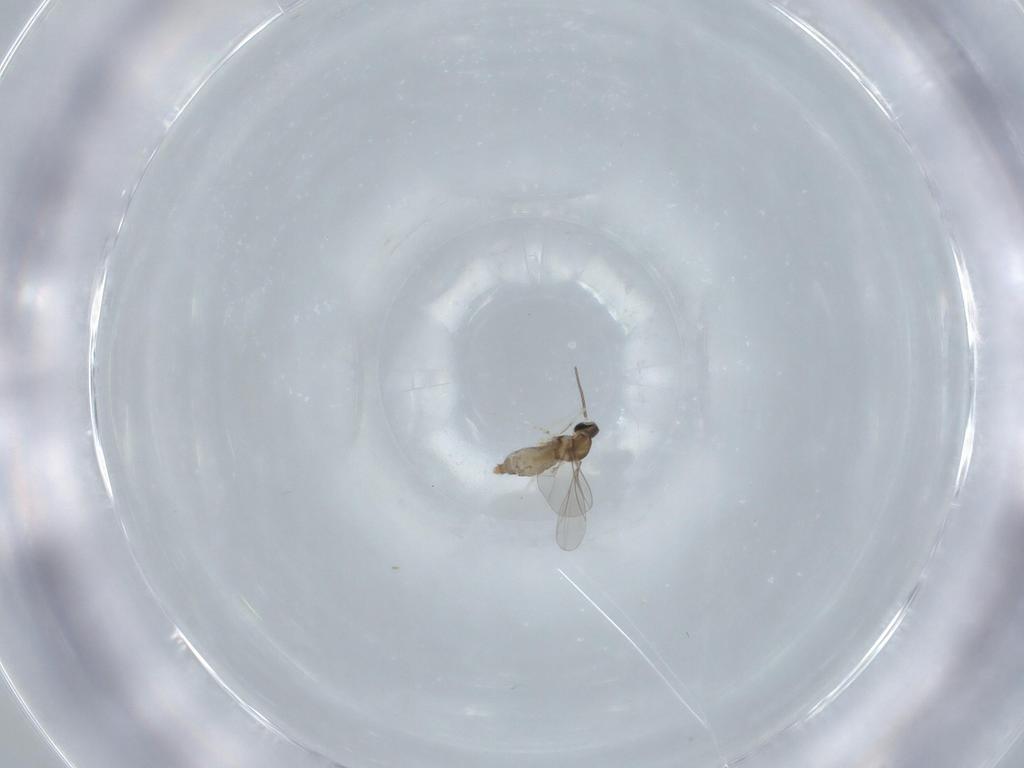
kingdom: Animalia
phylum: Arthropoda
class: Insecta
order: Diptera
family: Cecidomyiidae
